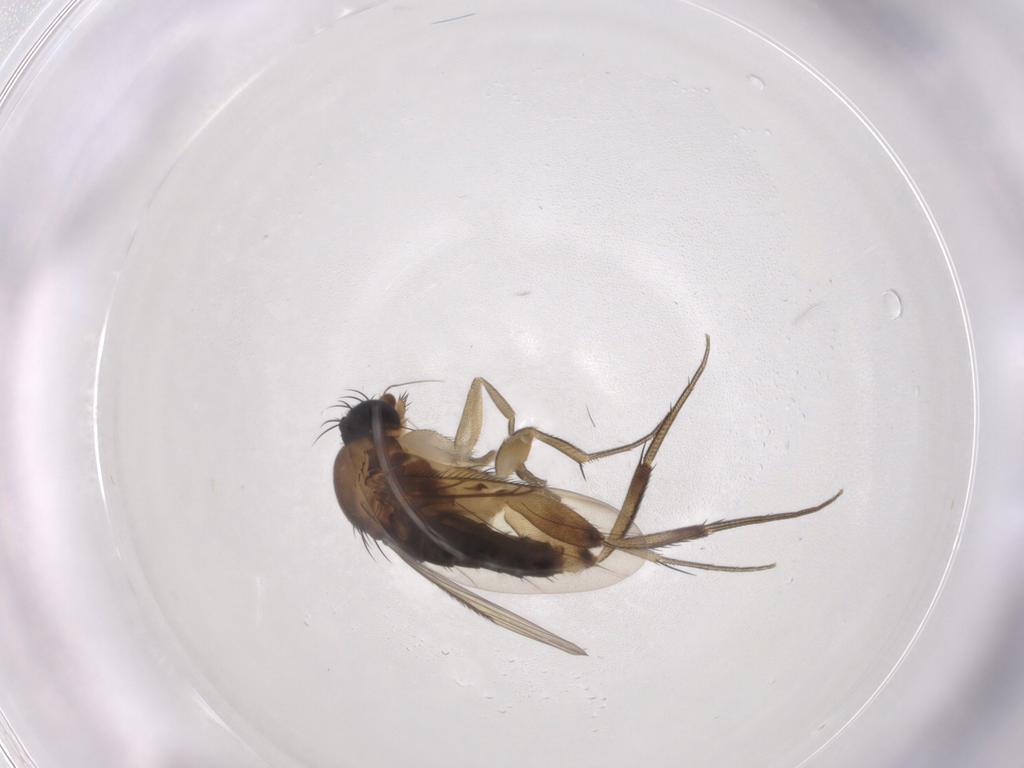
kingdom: Animalia
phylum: Arthropoda
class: Insecta
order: Diptera
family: Phoridae
